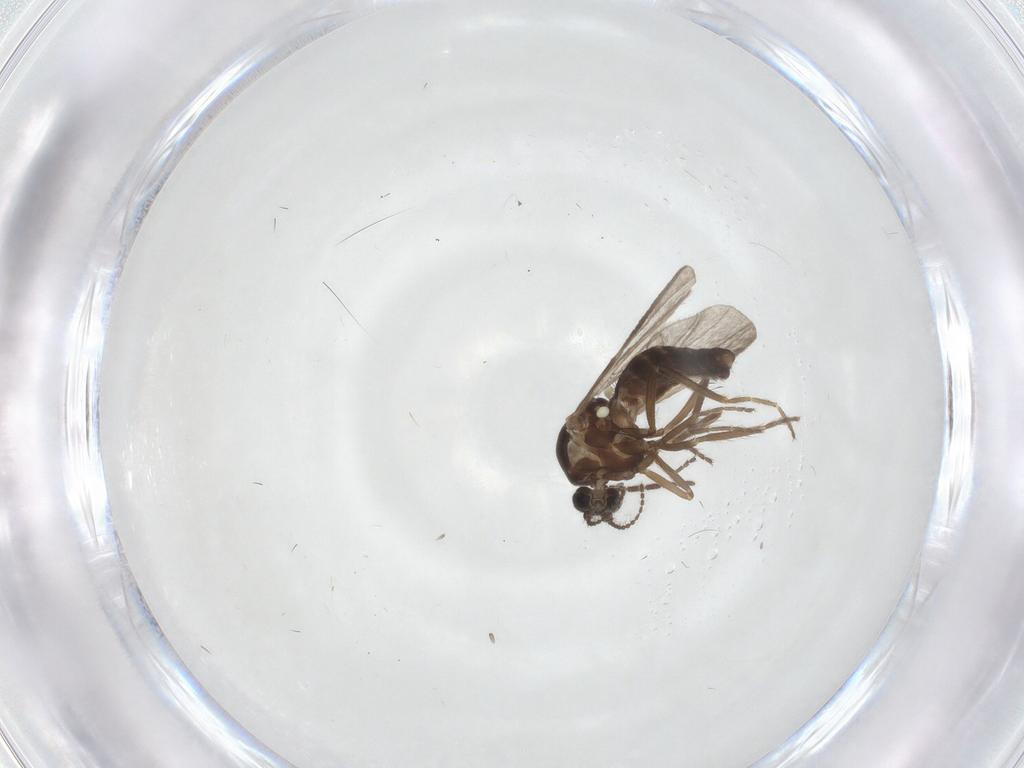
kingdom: Animalia
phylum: Arthropoda
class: Insecta
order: Diptera
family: Ceratopogonidae
